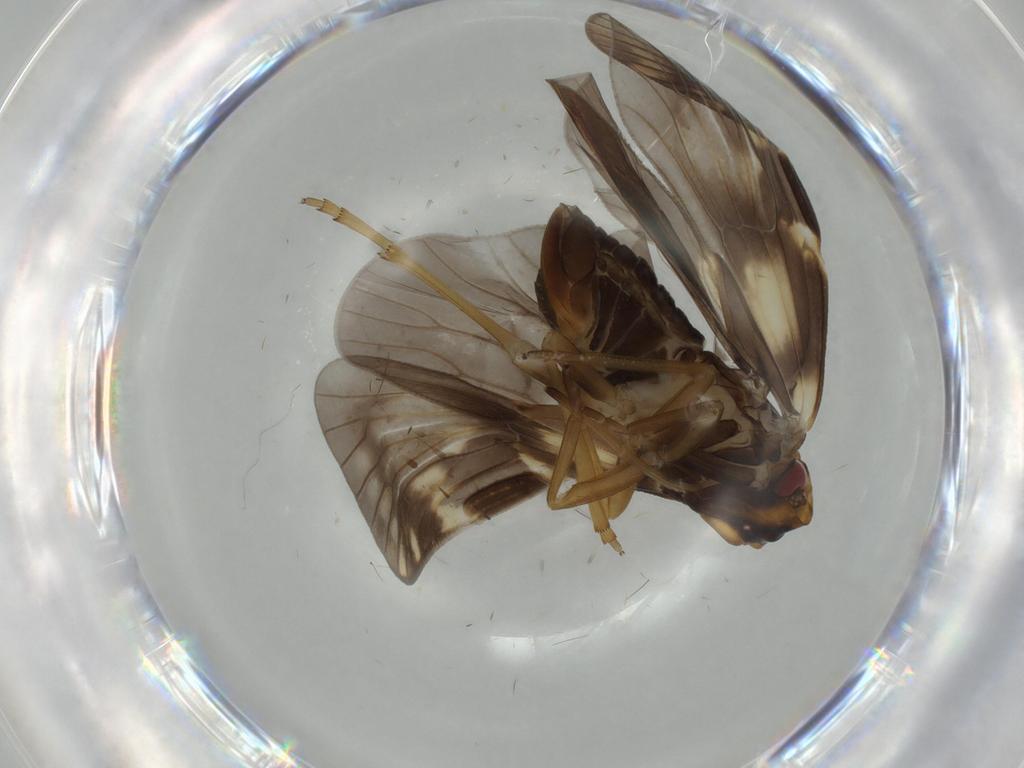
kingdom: Animalia
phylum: Arthropoda
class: Insecta
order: Hemiptera
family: Cixiidae
